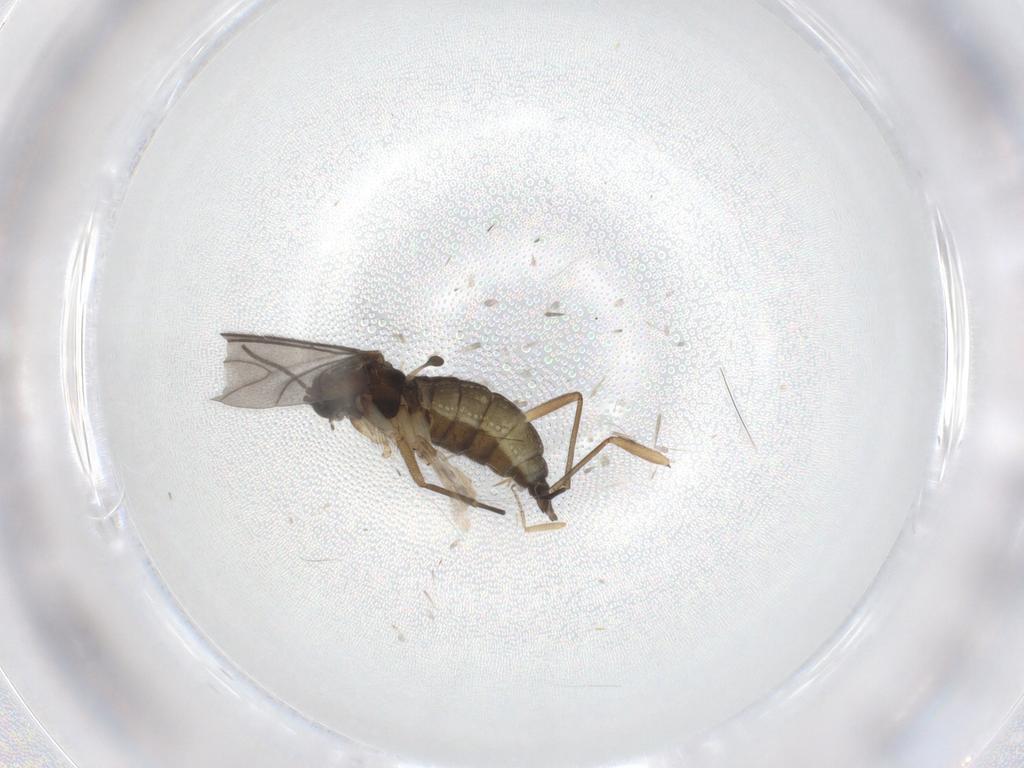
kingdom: Animalia
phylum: Arthropoda
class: Insecta
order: Diptera
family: Sciaridae
